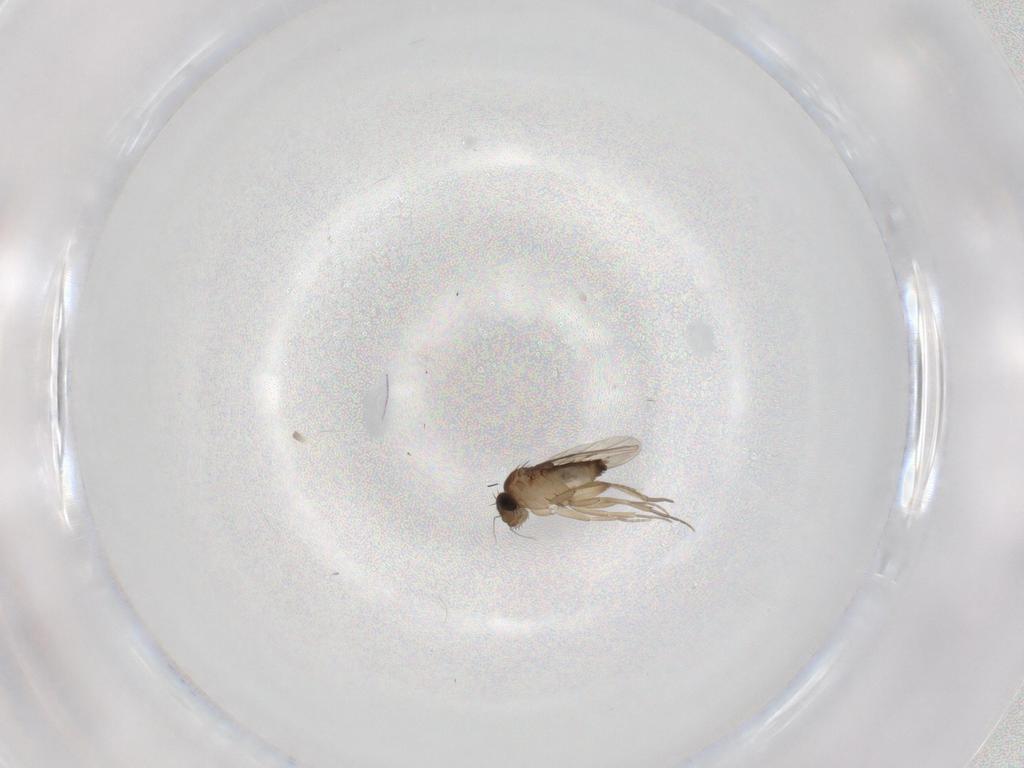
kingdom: Animalia
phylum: Arthropoda
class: Insecta
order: Diptera
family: Phoridae
